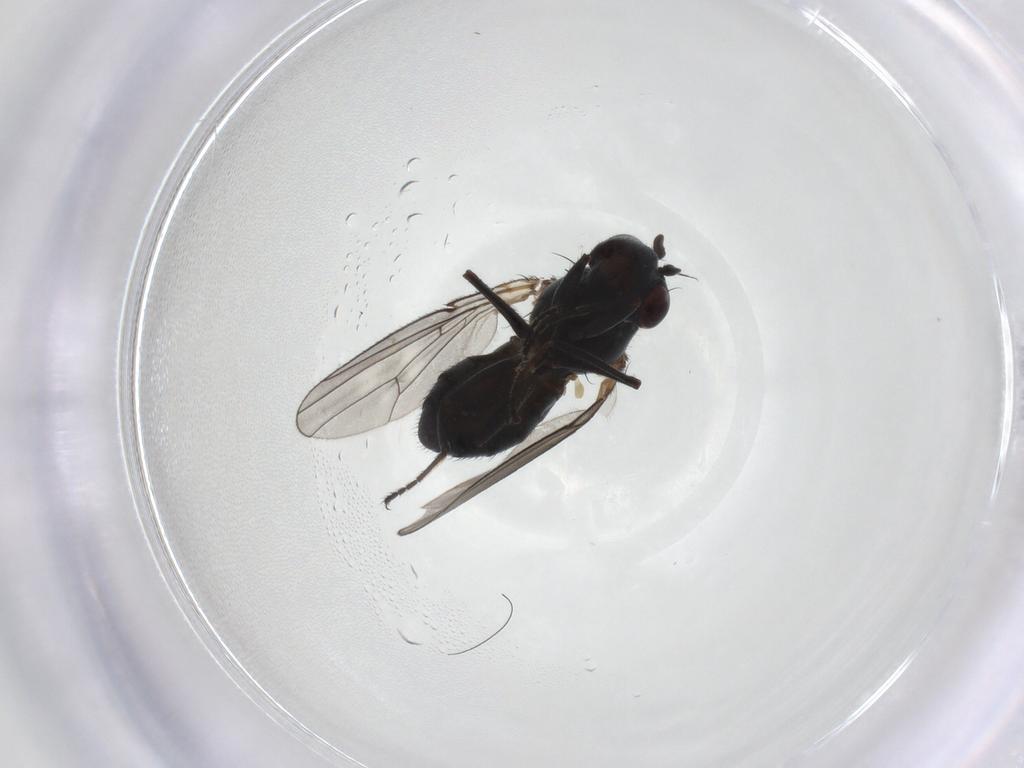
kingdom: Animalia
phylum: Arthropoda
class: Insecta
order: Diptera
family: Ephydridae
